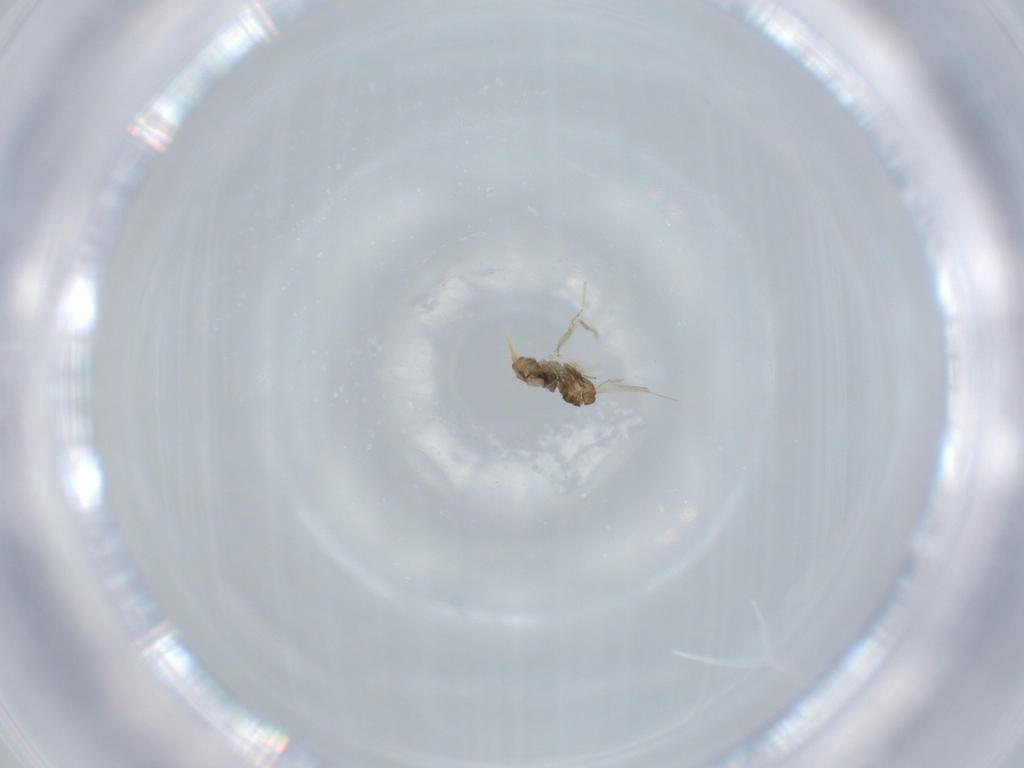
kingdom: Animalia
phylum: Arthropoda
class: Insecta
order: Diptera
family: Cecidomyiidae
